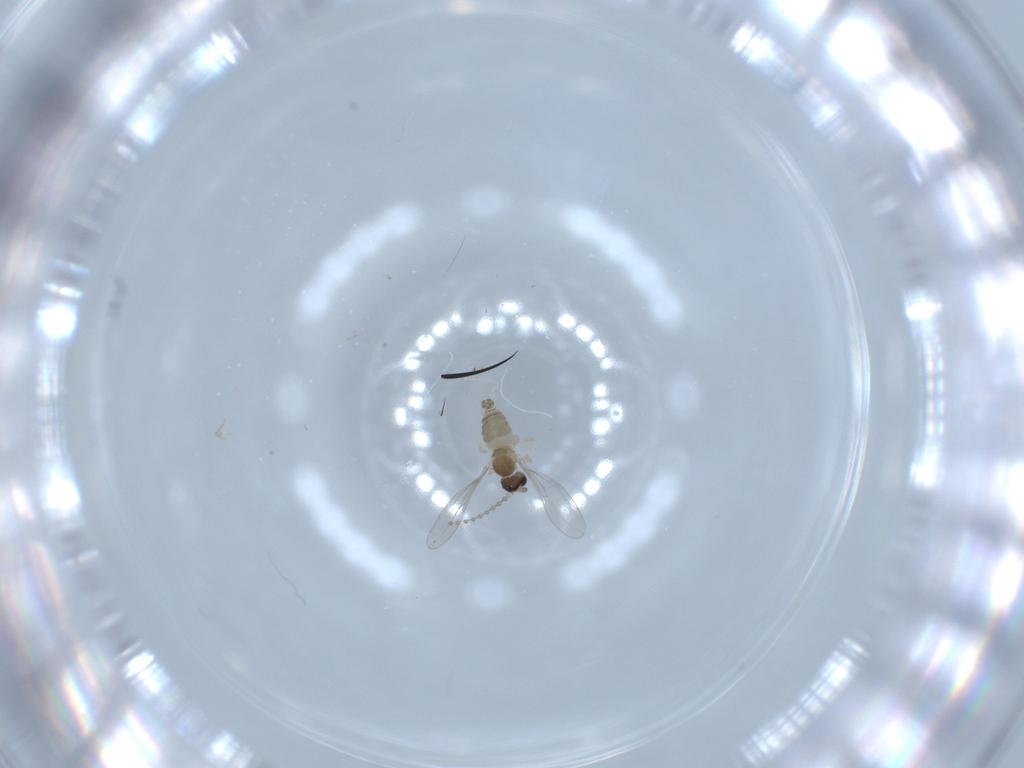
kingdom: Animalia
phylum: Arthropoda
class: Insecta
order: Diptera
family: Cecidomyiidae
